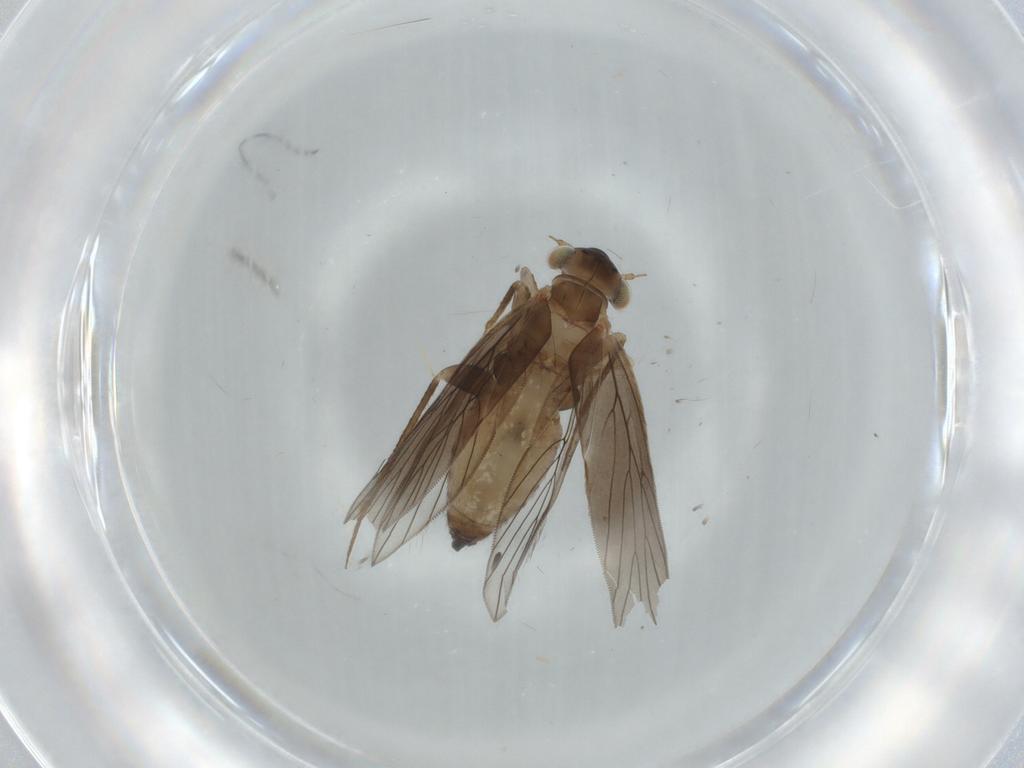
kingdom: Animalia
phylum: Arthropoda
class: Insecta
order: Psocodea
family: Lepidopsocidae
